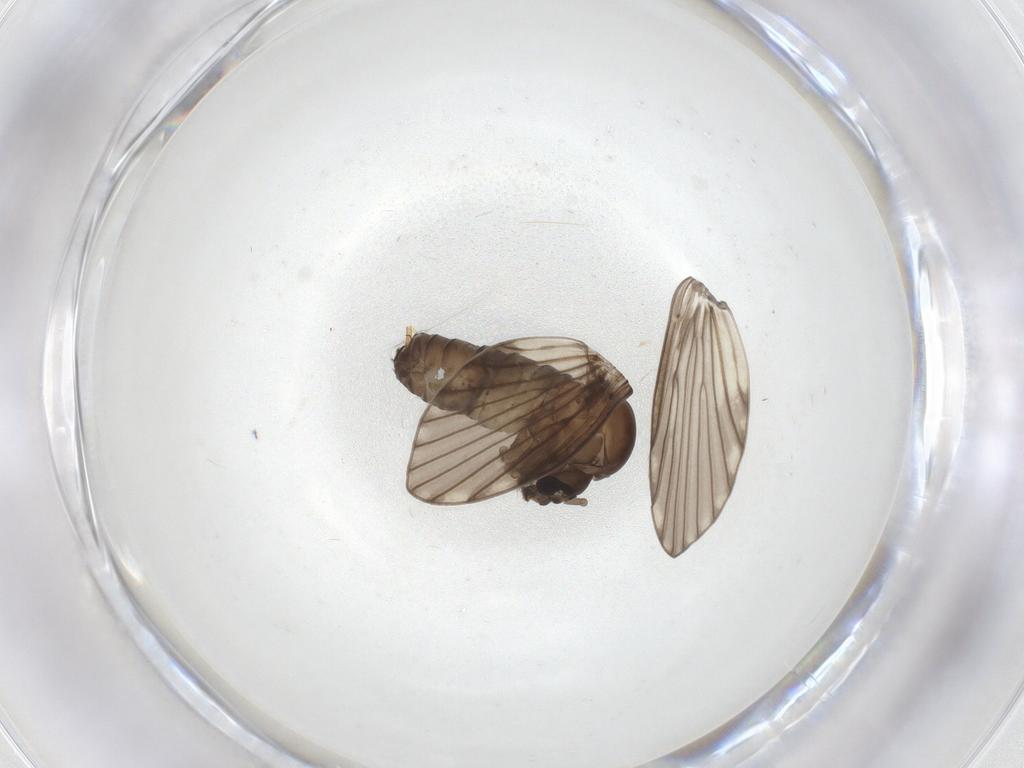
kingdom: Animalia
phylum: Arthropoda
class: Insecta
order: Diptera
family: Psychodidae
